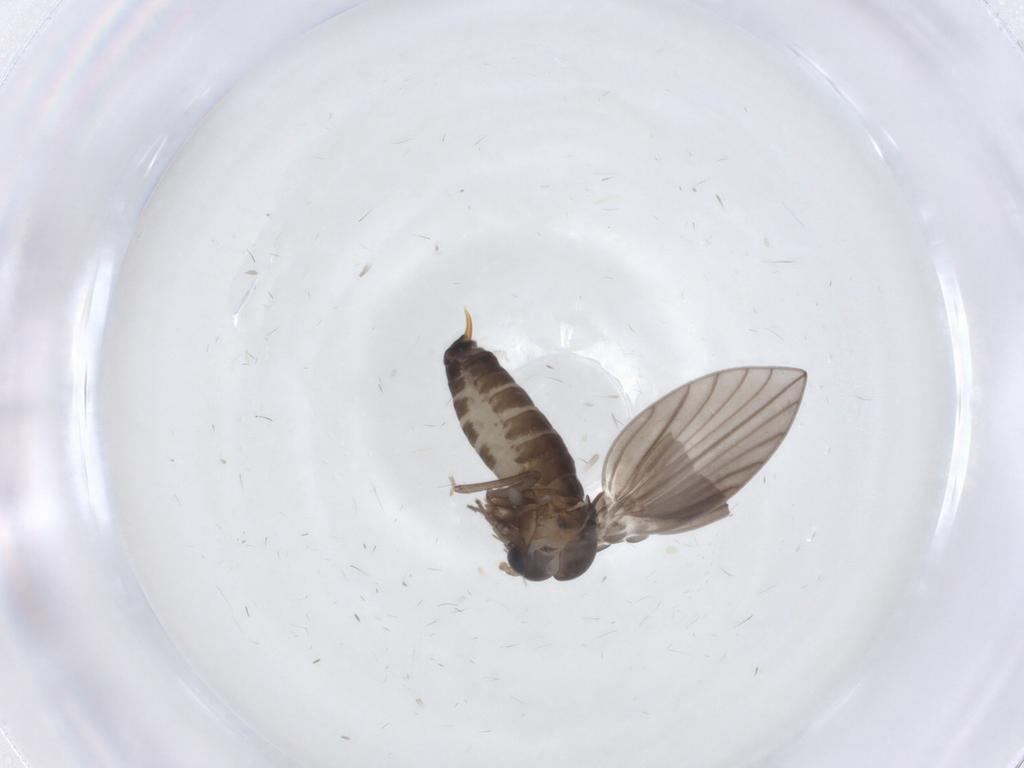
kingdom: Animalia
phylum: Arthropoda
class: Insecta
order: Diptera
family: Psychodidae
